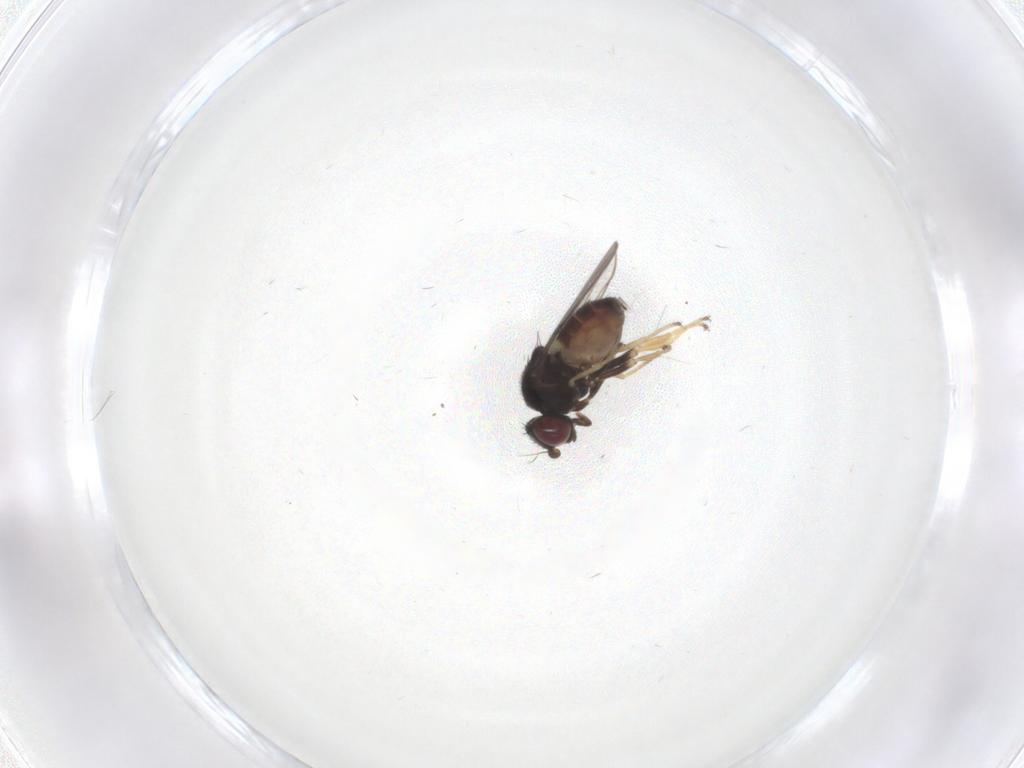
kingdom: Animalia
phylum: Arthropoda
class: Insecta
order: Diptera
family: Chloropidae
